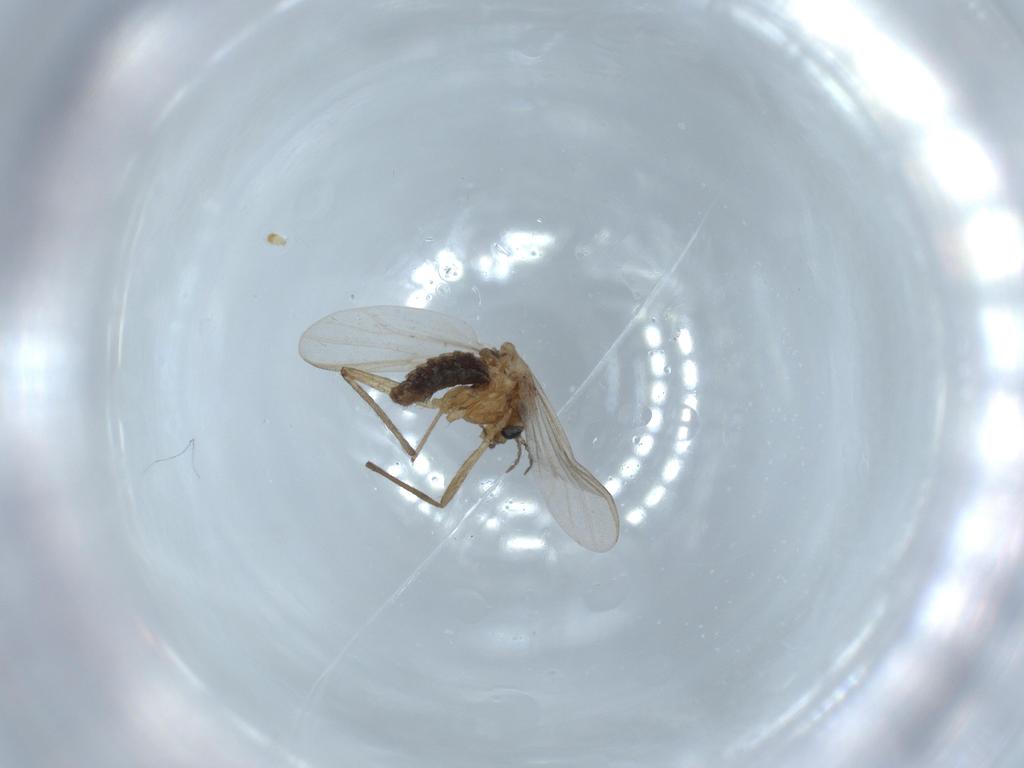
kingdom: Animalia
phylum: Arthropoda
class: Insecta
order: Diptera
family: Chironomidae
